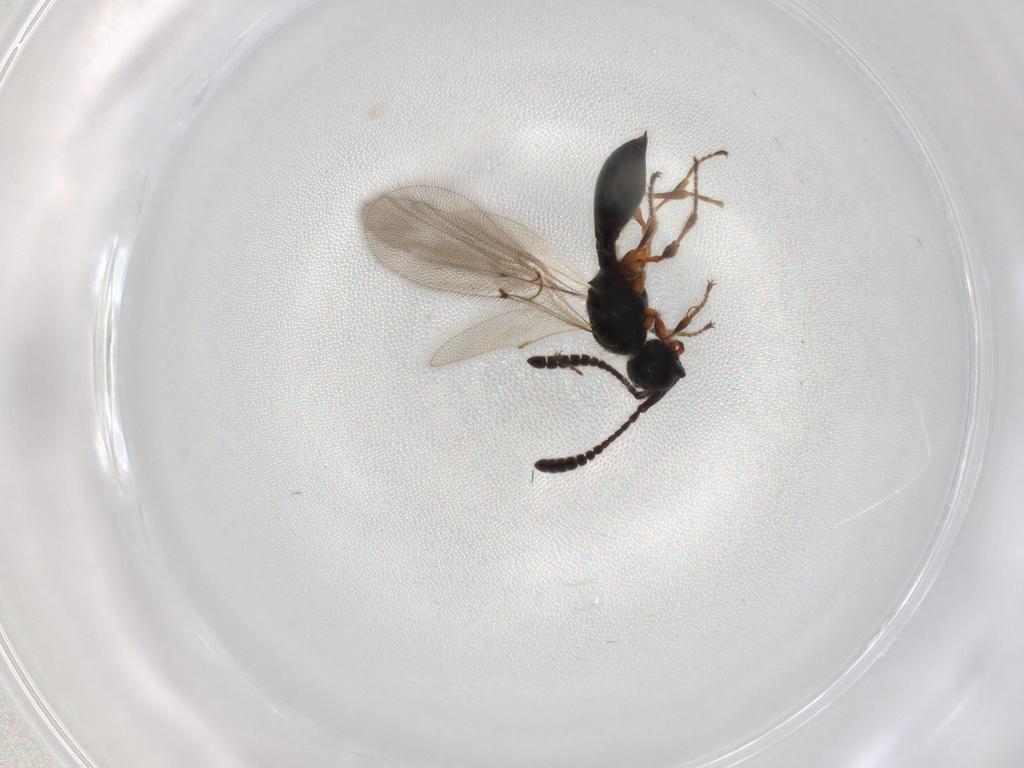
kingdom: Animalia
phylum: Arthropoda
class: Insecta
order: Hymenoptera
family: Diapriidae
